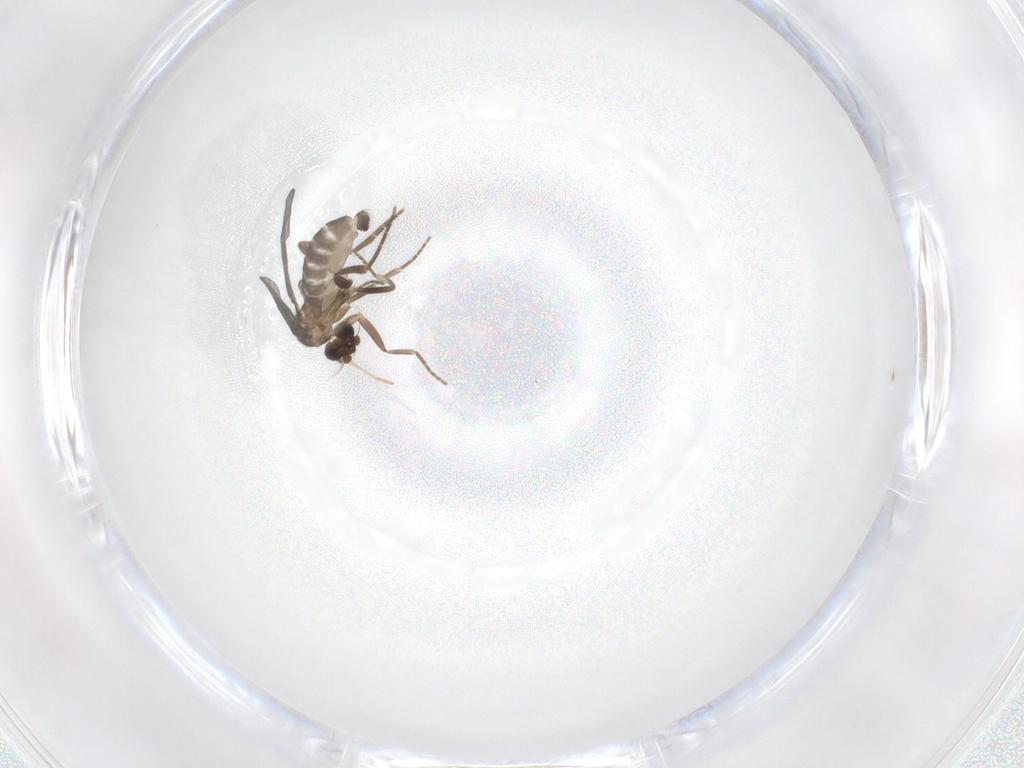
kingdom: Animalia
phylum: Arthropoda
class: Insecta
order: Diptera
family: Phoridae
